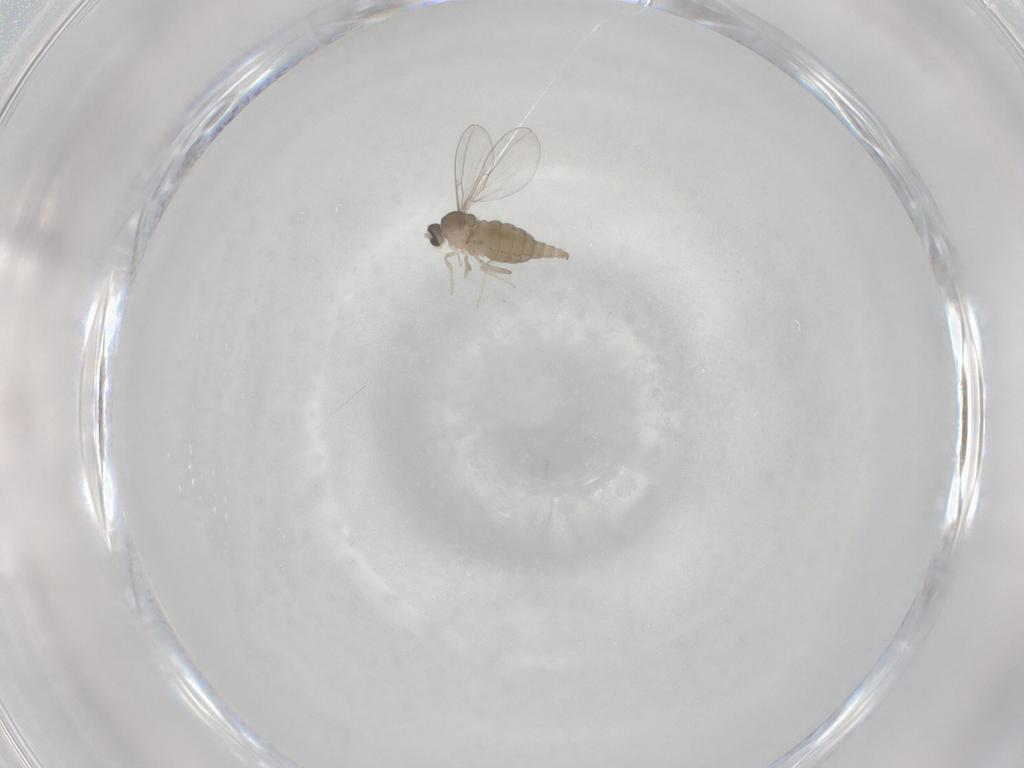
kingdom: Animalia
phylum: Arthropoda
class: Insecta
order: Diptera
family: Cecidomyiidae
